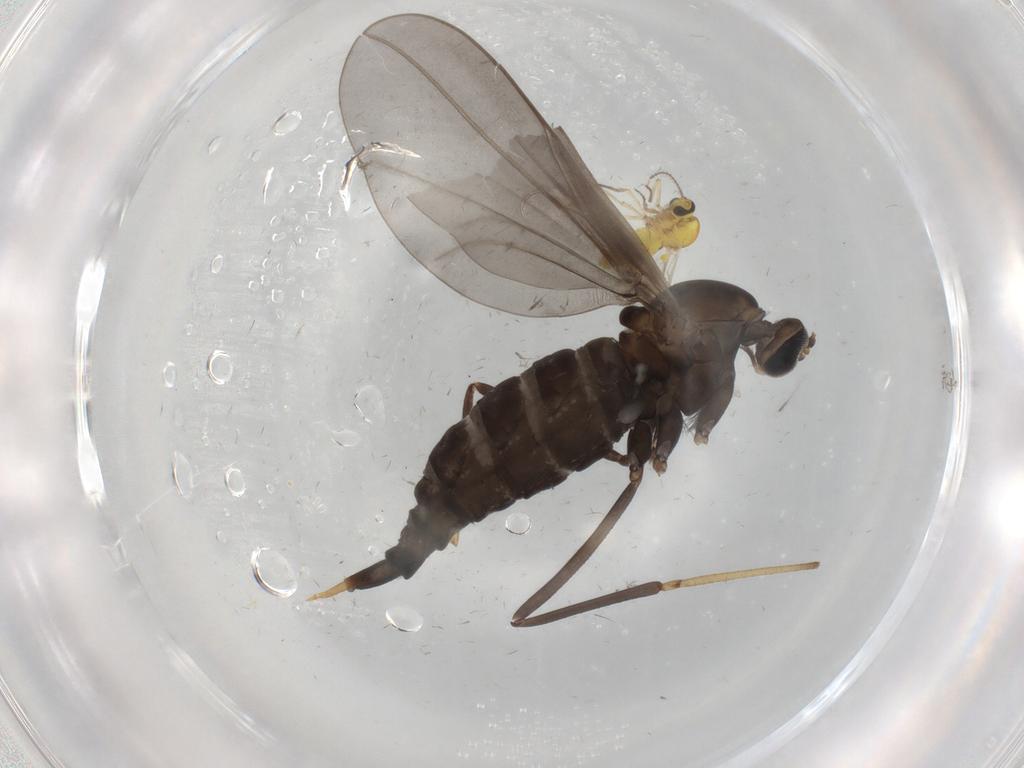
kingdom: Animalia
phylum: Arthropoda
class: Insecta
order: Diptera
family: Cecidomyiidae
